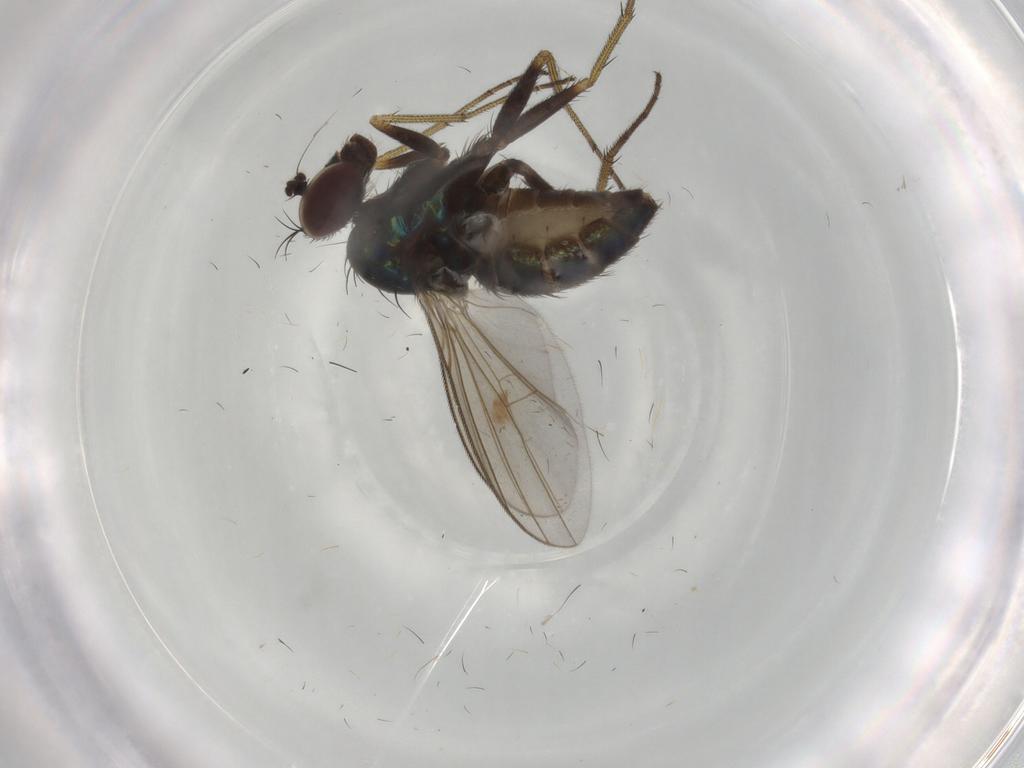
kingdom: Animalia
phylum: Arthropoda
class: Insecta
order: Diptera
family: Dolichopodidae
